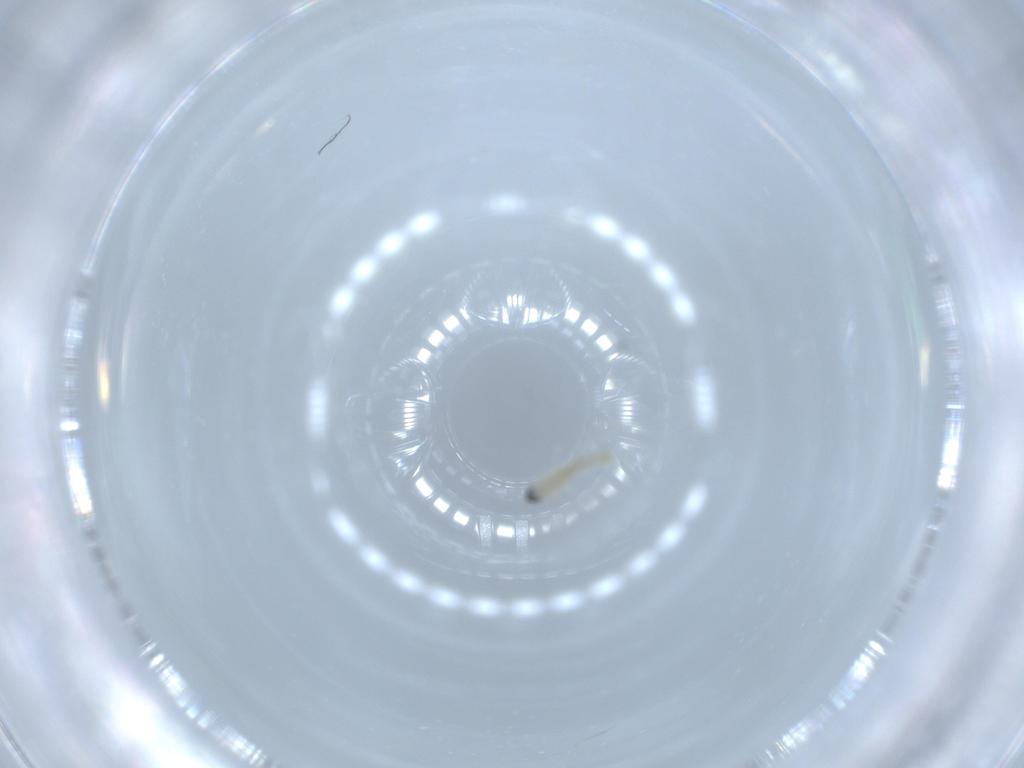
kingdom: Animalia
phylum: Arthropoda
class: Insecta
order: Diptera
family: Cecidomyiidae
